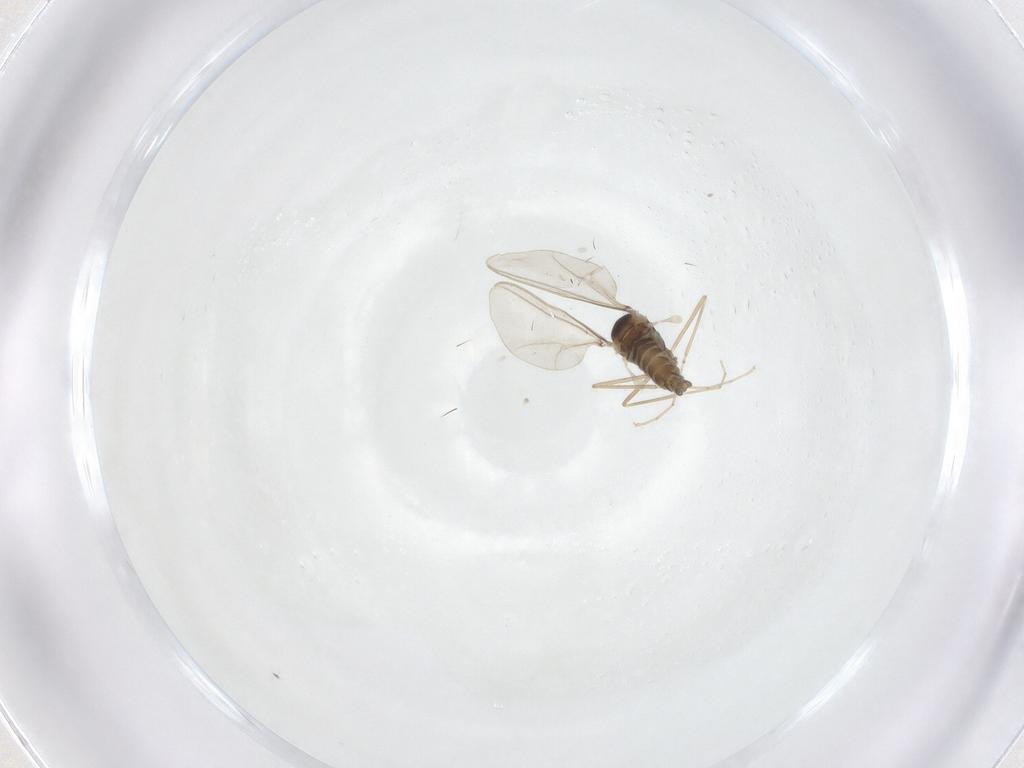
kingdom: Animalia
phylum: Arthropoda
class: Insecta
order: Diptera
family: Cecidomyiidae
